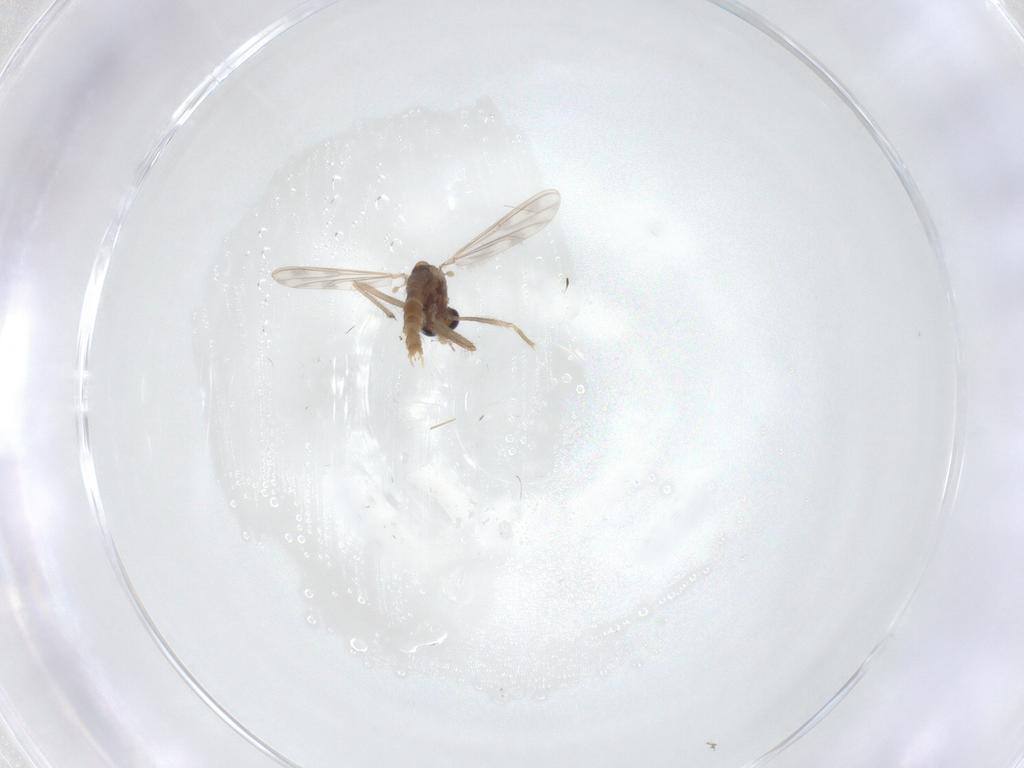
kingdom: Animalia
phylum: Arthropoda
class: Insecta
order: Diptera
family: Chironomidae
